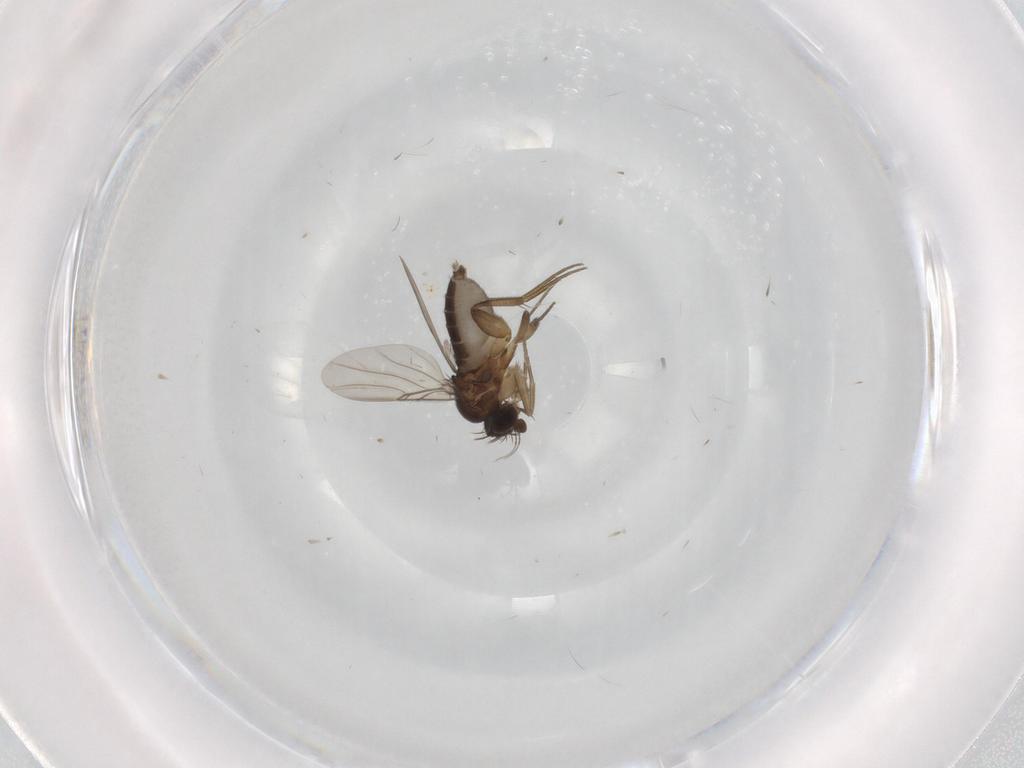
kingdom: Animalia
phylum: Arthropoda
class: Insecta
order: Diptera
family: Phoridae
